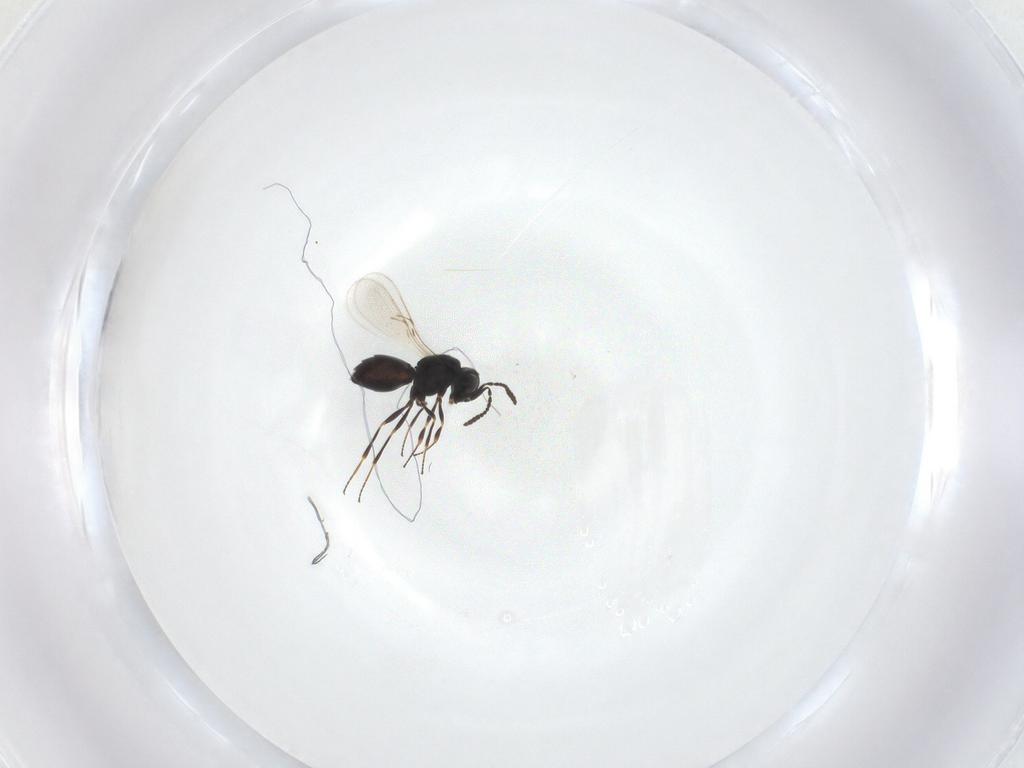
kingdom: Animalia
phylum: Arthropoda
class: Insecta
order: Hymenoptera
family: Scelionidae
